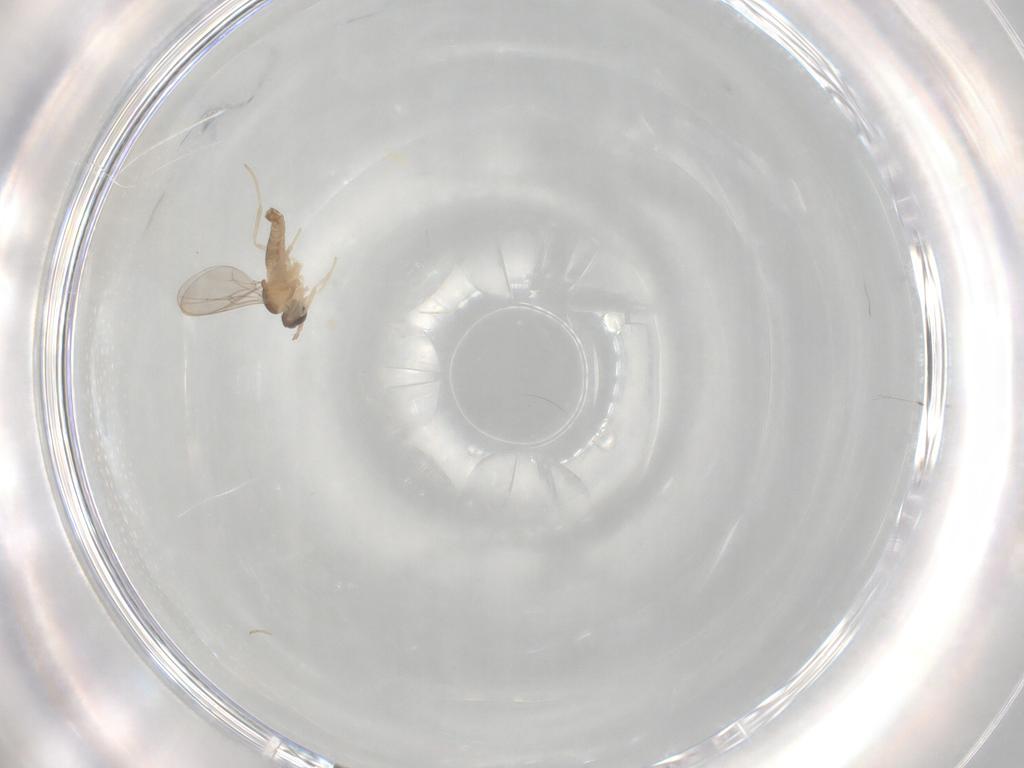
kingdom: Animalia
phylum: Arthropoda
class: Insecta
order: Diptera
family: Cecidomyiidae
